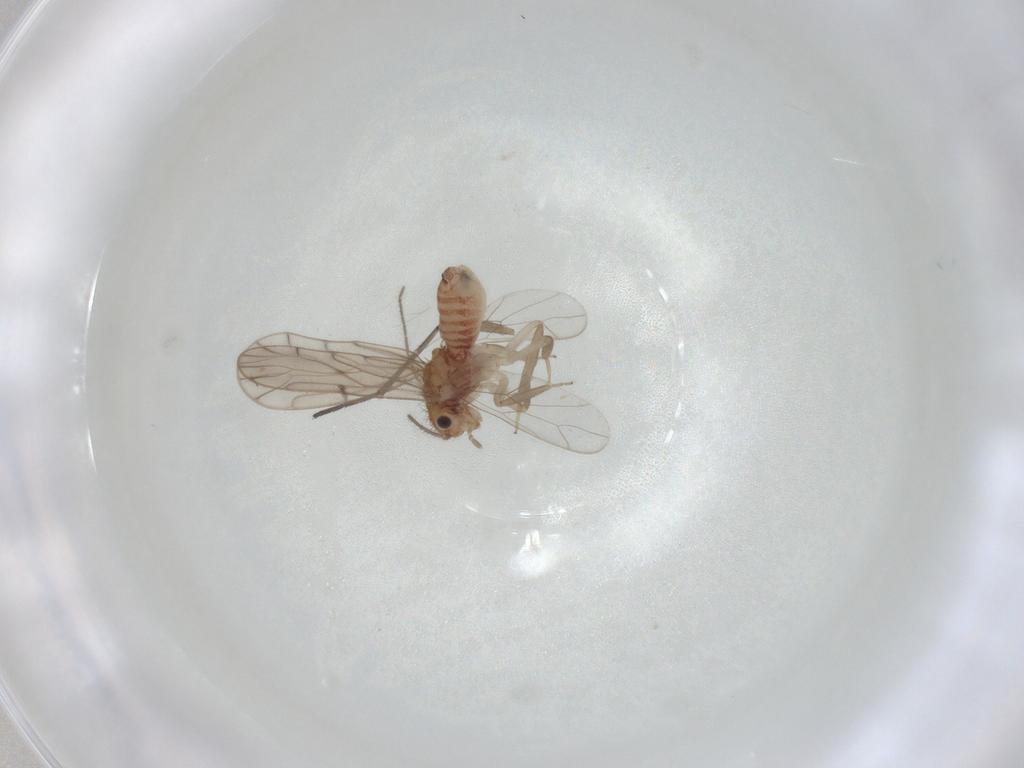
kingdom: Animalia
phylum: Arthropoda
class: Insecta
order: Psocodea
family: Ectopsocidae
